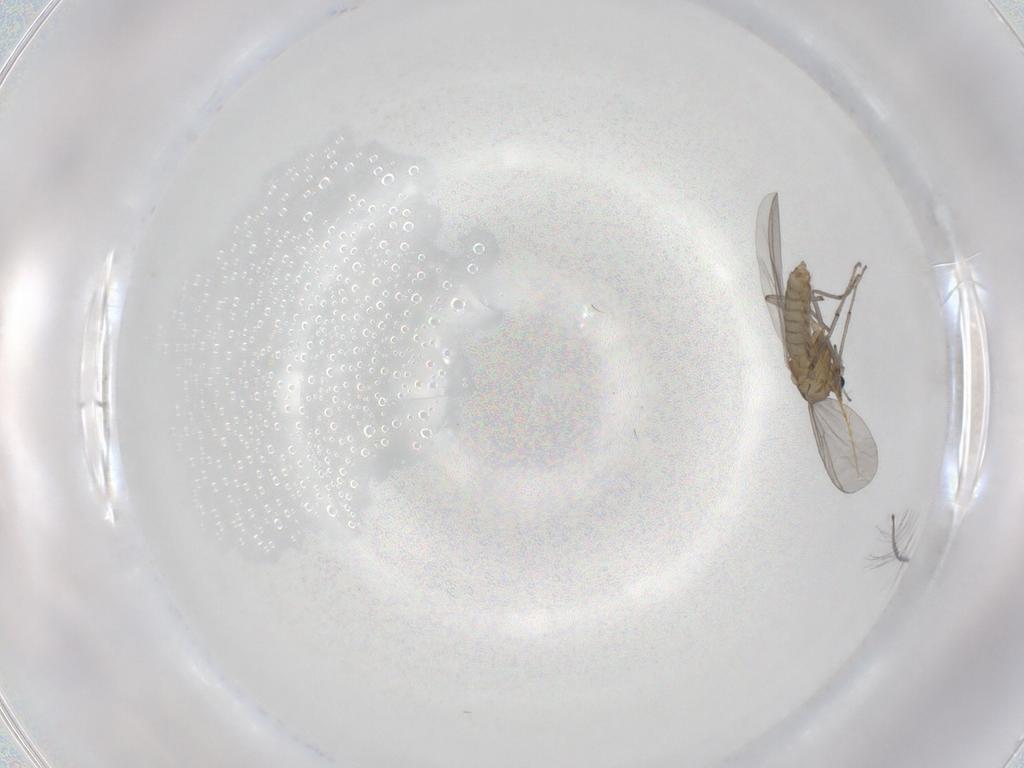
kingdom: Animalia
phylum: Arthropoda
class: Insecta
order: Diptera
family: Chironomidae
